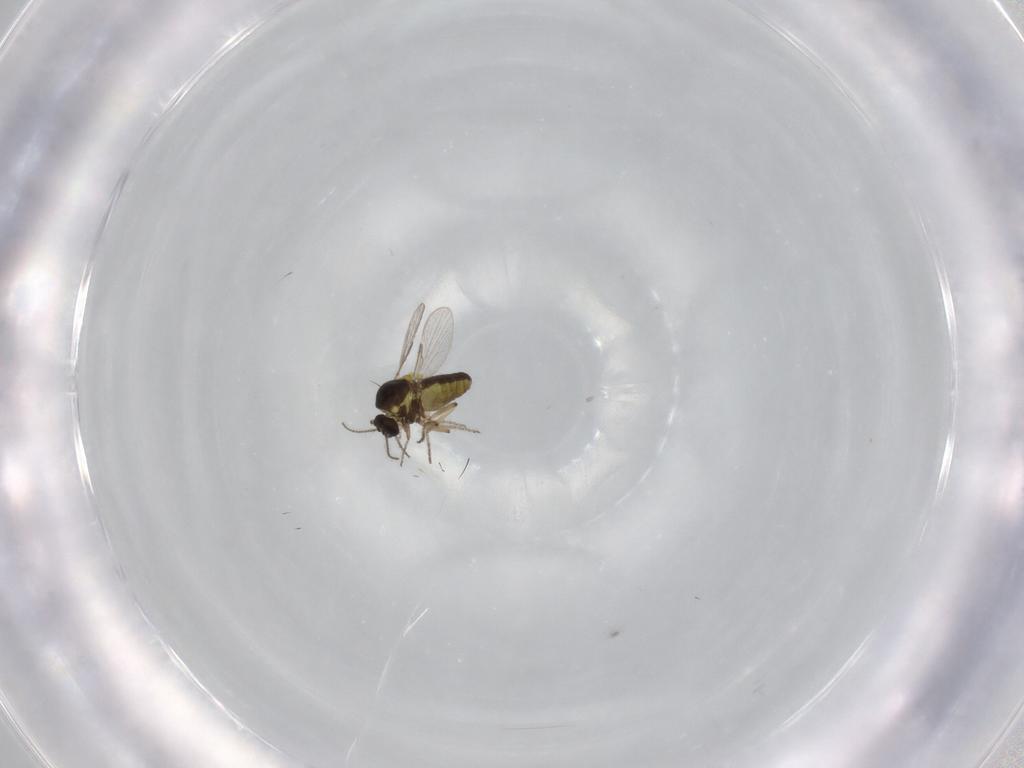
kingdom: Animalia
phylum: Arthropoda
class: Insecta
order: Diptera
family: Ceratopogonidae
